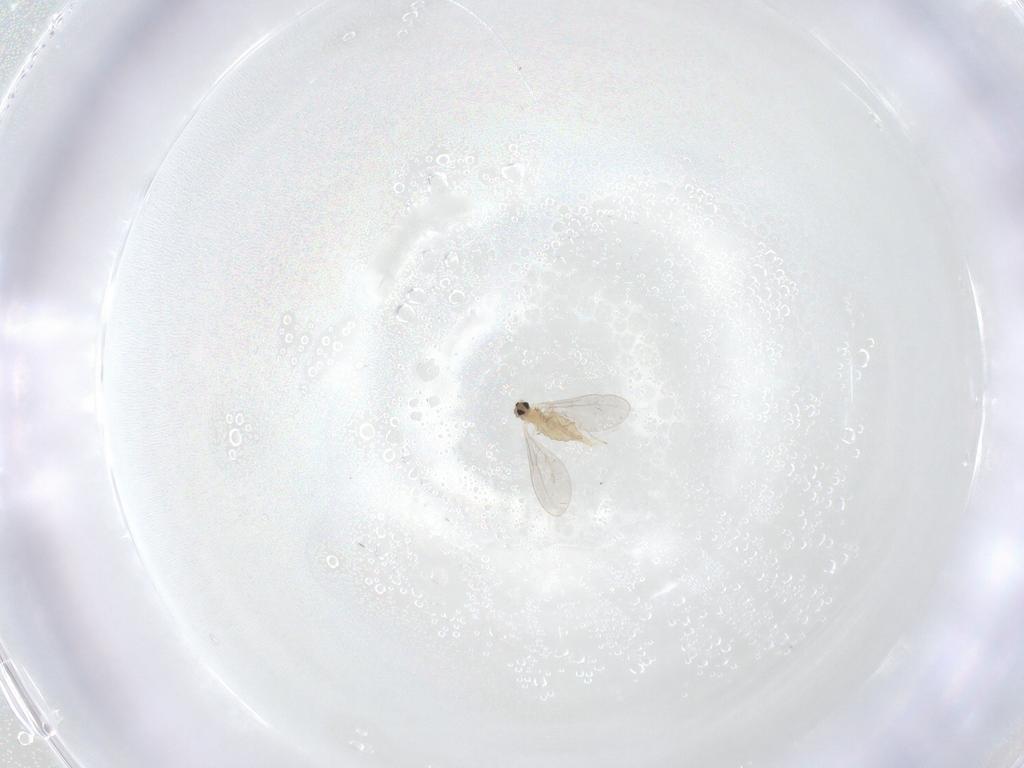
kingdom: Animalia
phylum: Arthropoda
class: Insecta
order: Diptera
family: Cecidomyiidae
